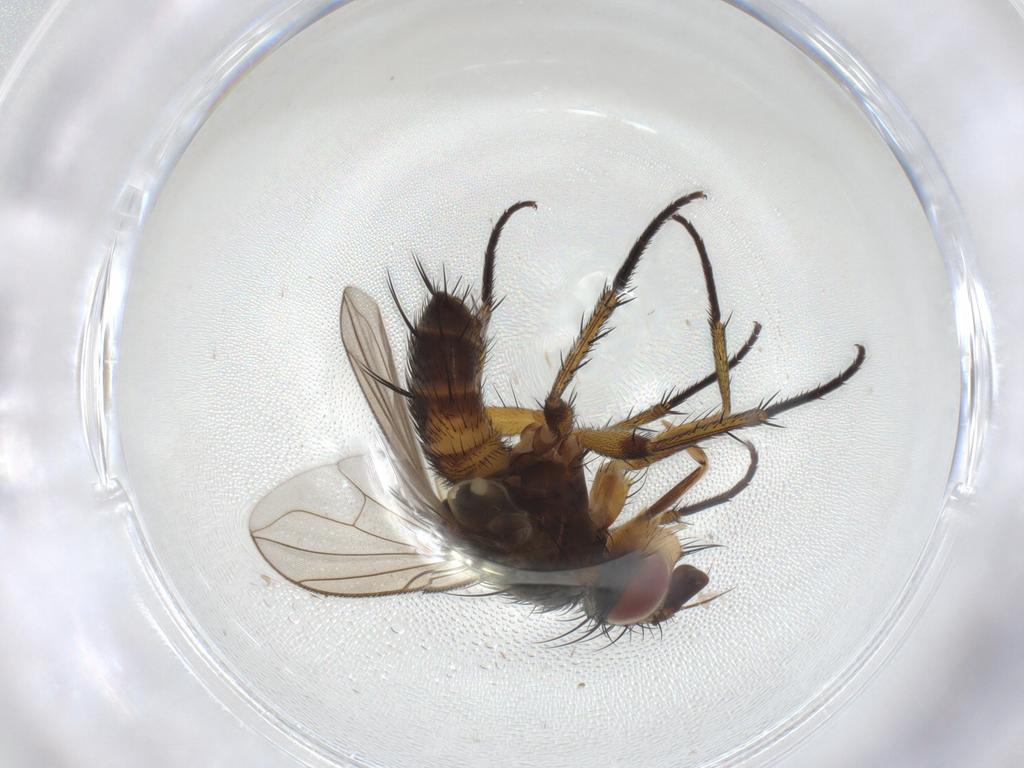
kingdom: Animalia
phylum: Arthropoda
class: Insecta
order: Diptera
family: Tachinidae
